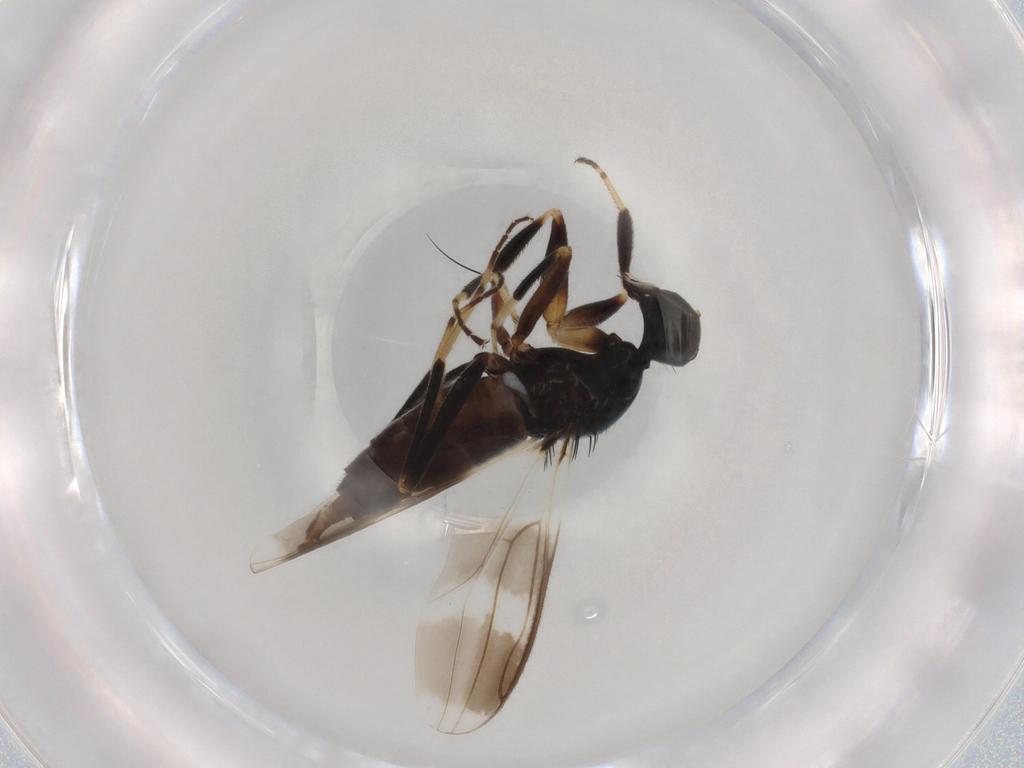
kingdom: Animalia
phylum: Arthropoda
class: Insecta
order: Diptera
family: Hybotidae
